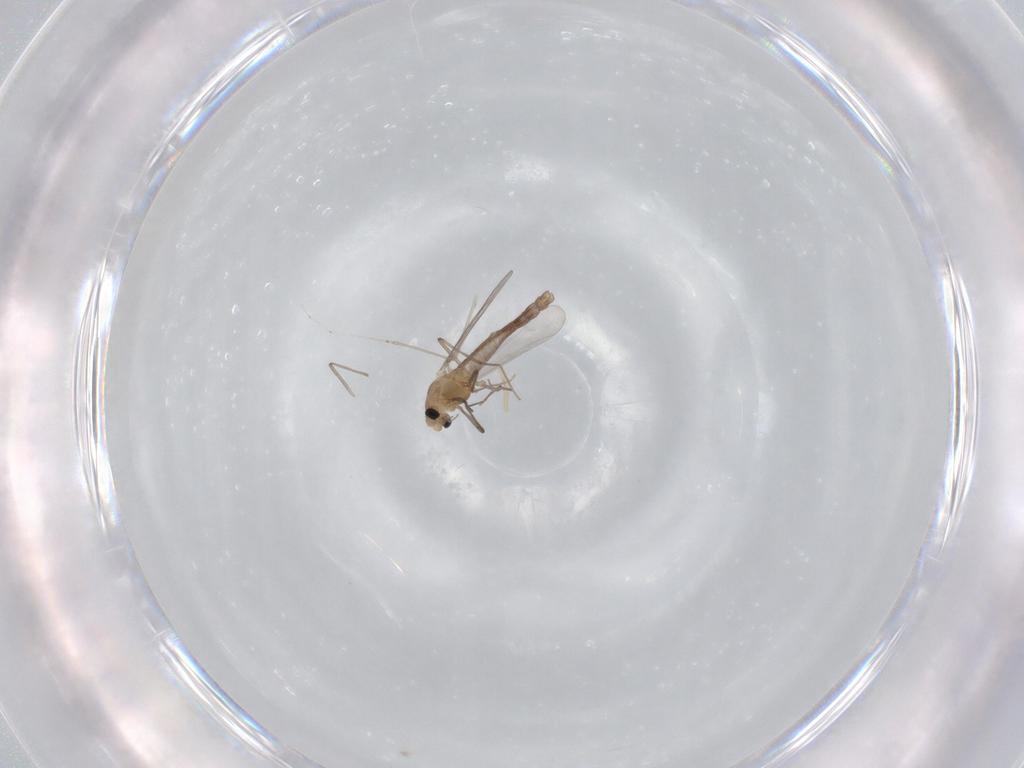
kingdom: Animalia
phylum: Arthropoda
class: Insecta
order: Diptera
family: Chironomidae
